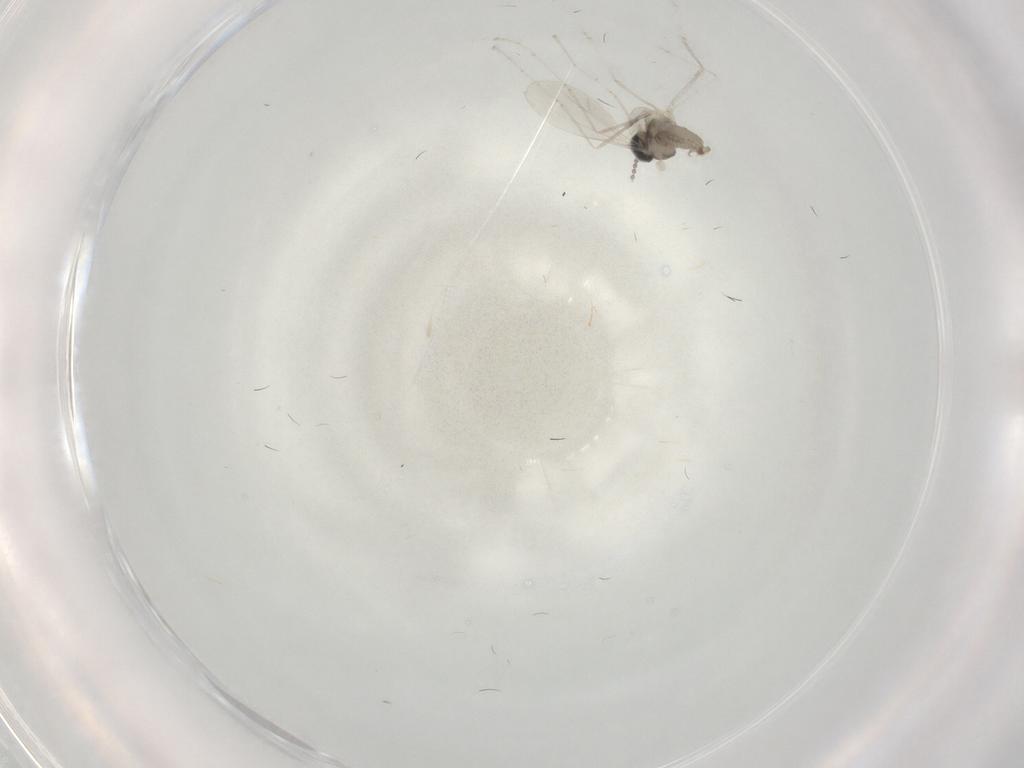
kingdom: Animalia
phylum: Arthropoda
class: Insecta
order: Diptera
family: Cecidomyiidae
